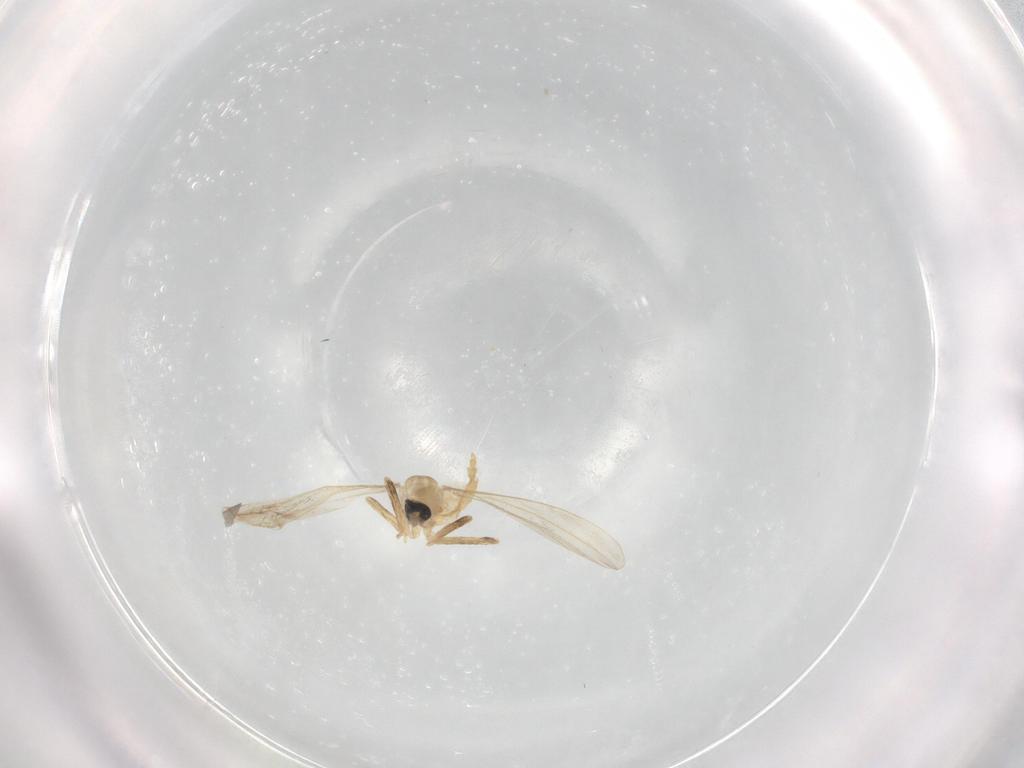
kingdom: Animalia
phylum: Arthropoda
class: Insecta
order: Diptera
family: Cecidomyiidae
